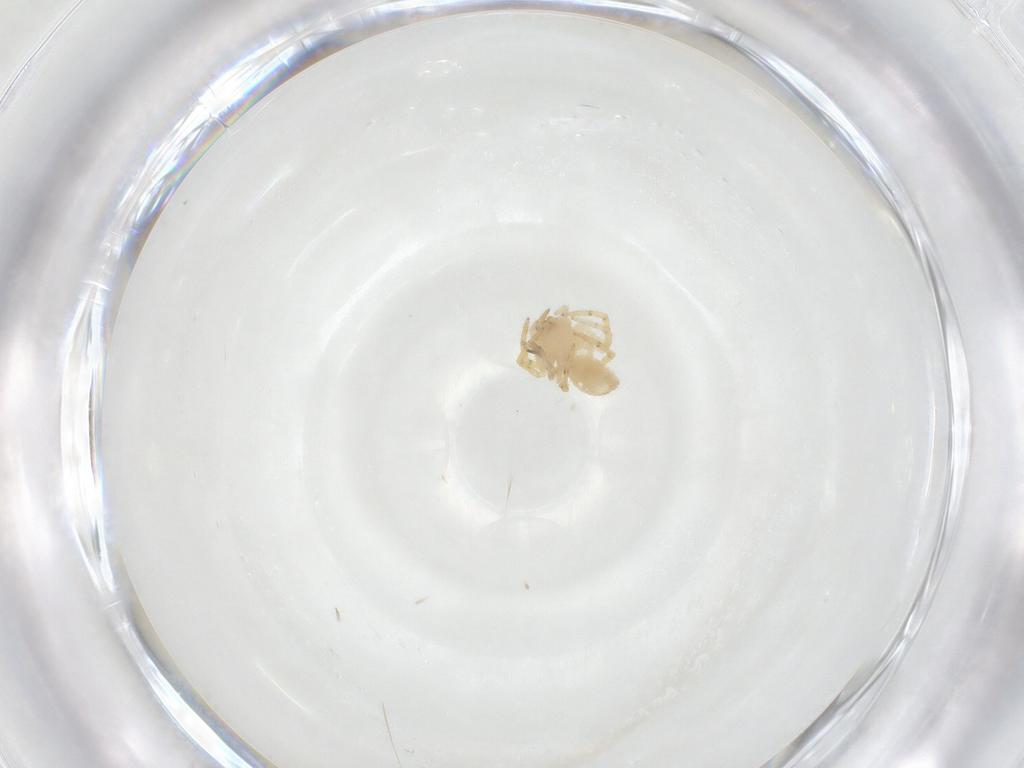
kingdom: Animalia
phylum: Arthropoda
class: Arachnida
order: Araneae
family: Theridiidae
